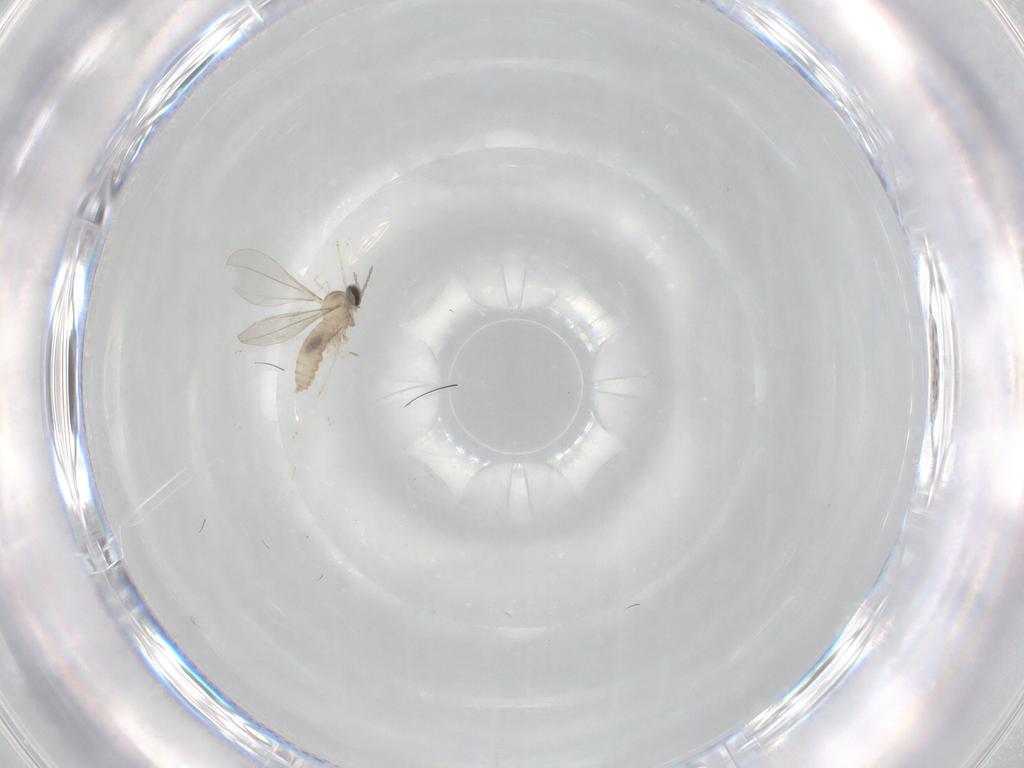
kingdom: Animalia
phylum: Arthropoda
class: Insecta
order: Diptera
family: Cecidomyiidae
